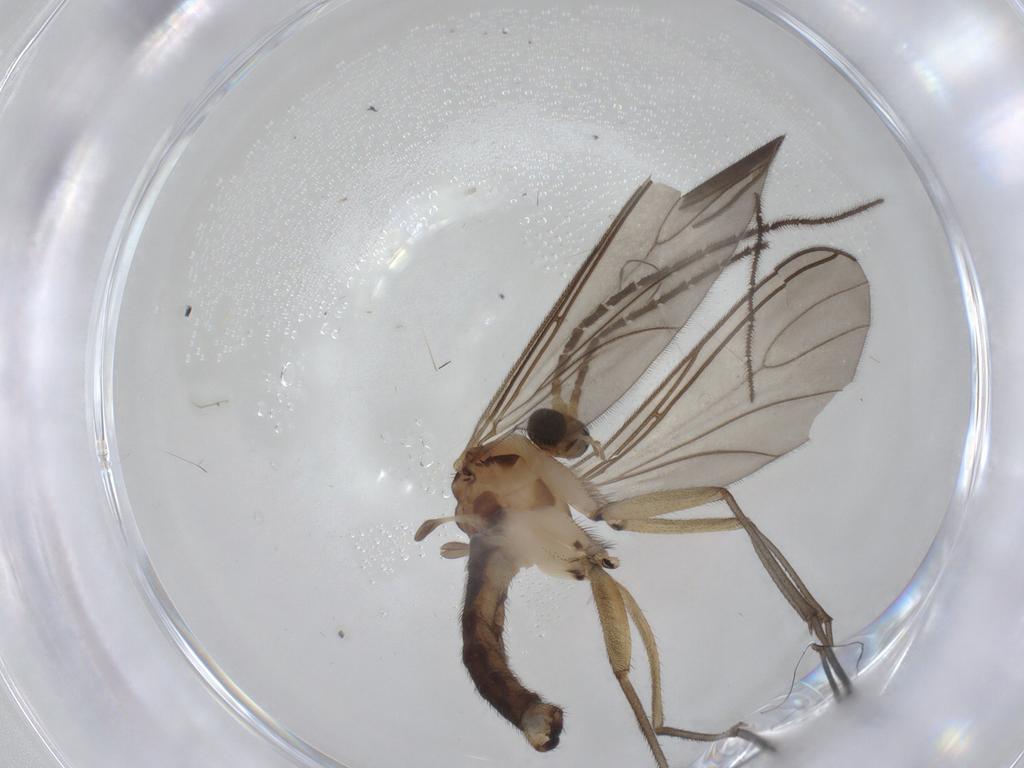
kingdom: Animalia
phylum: Arthropoda
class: Insecta
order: Diptera
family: Sciaridae
